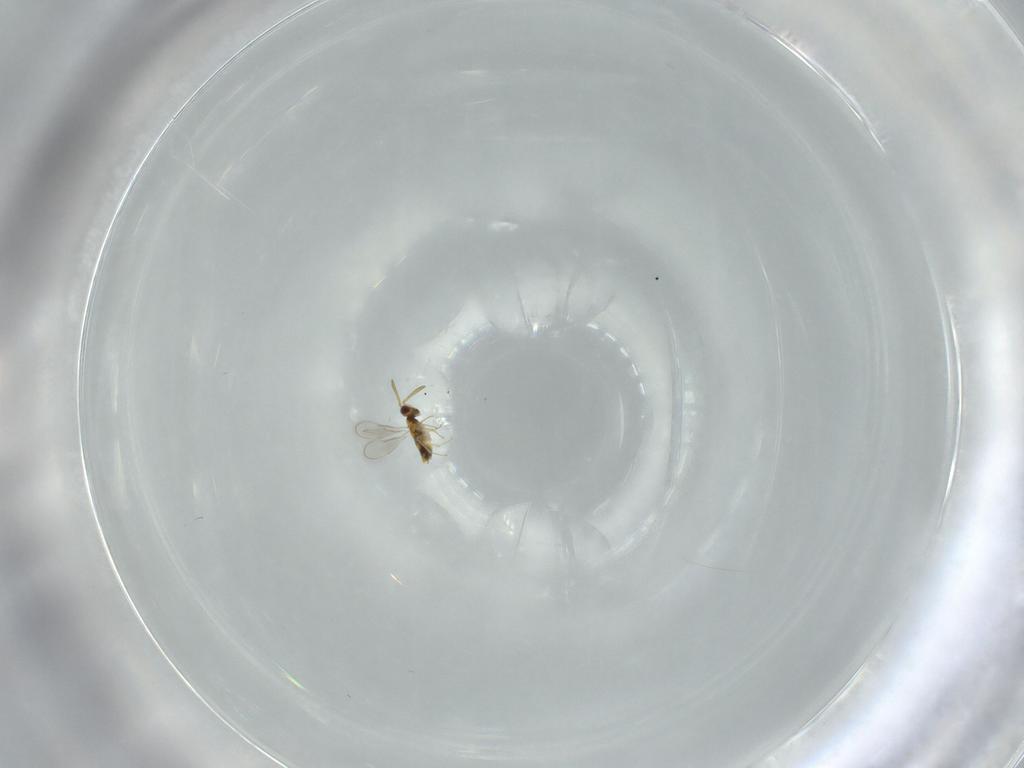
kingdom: Animalia
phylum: Arthropoda
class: Insecta
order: Hymenoptera
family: Aphelinidae
